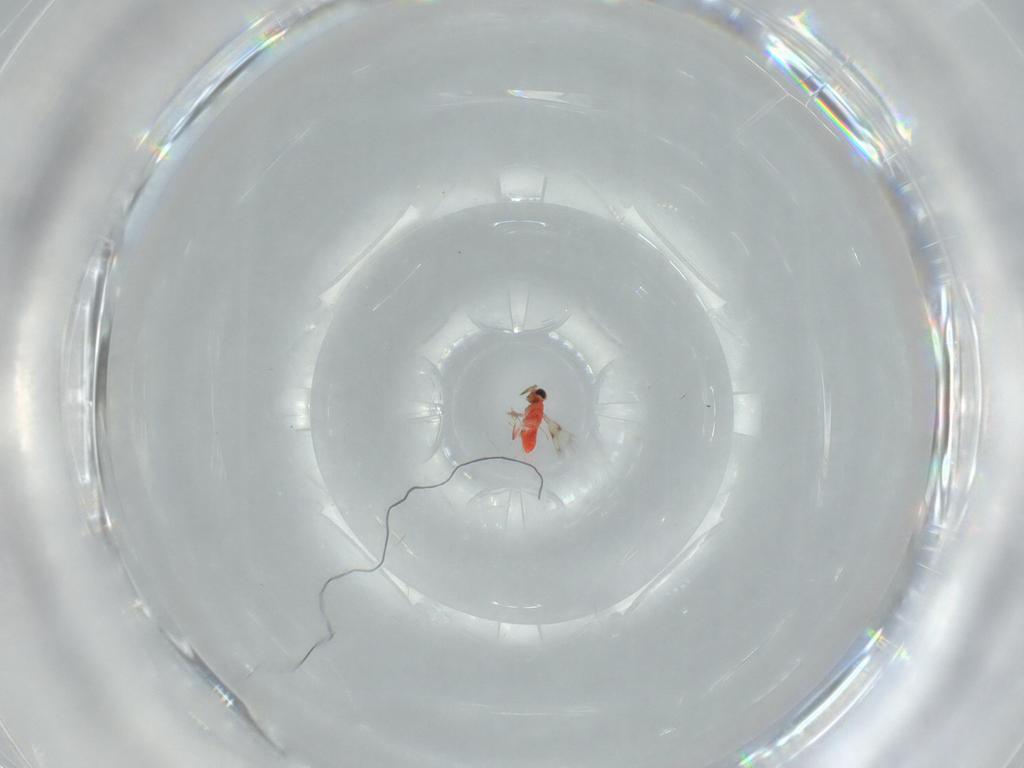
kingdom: Animalia
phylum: Arthropoda
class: Insecta
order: Hymenoptera
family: Trichogrammatidae
